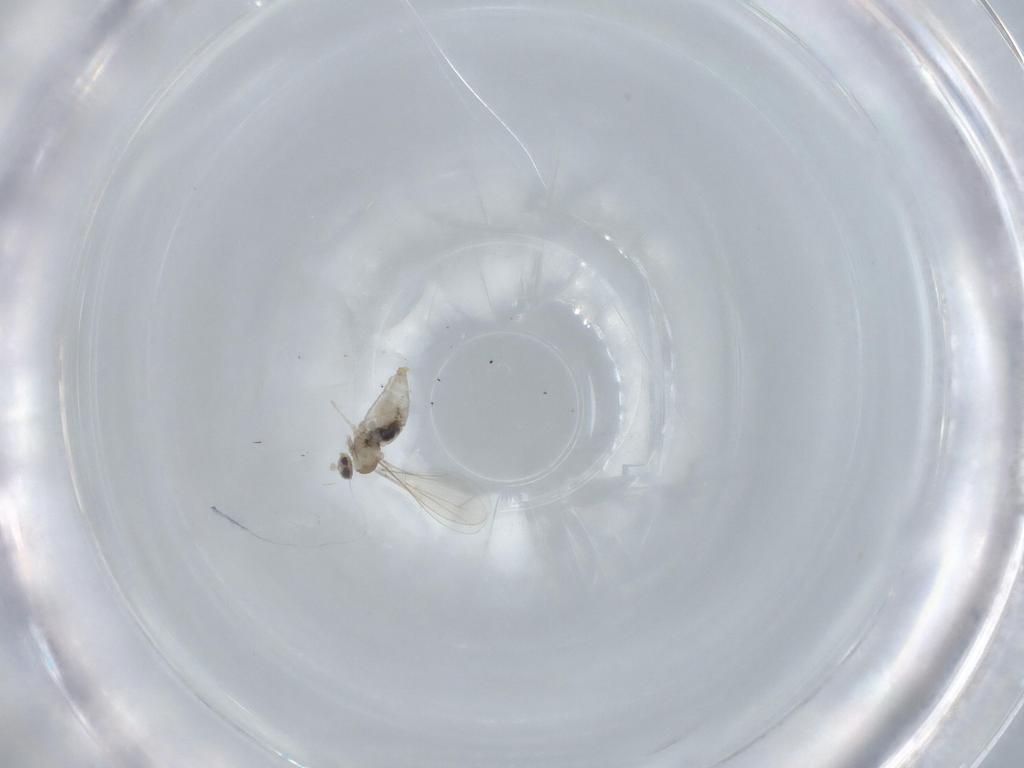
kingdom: Animalia
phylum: Arthropoda
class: Insecta
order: Diptera
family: Cecidomyiidae
